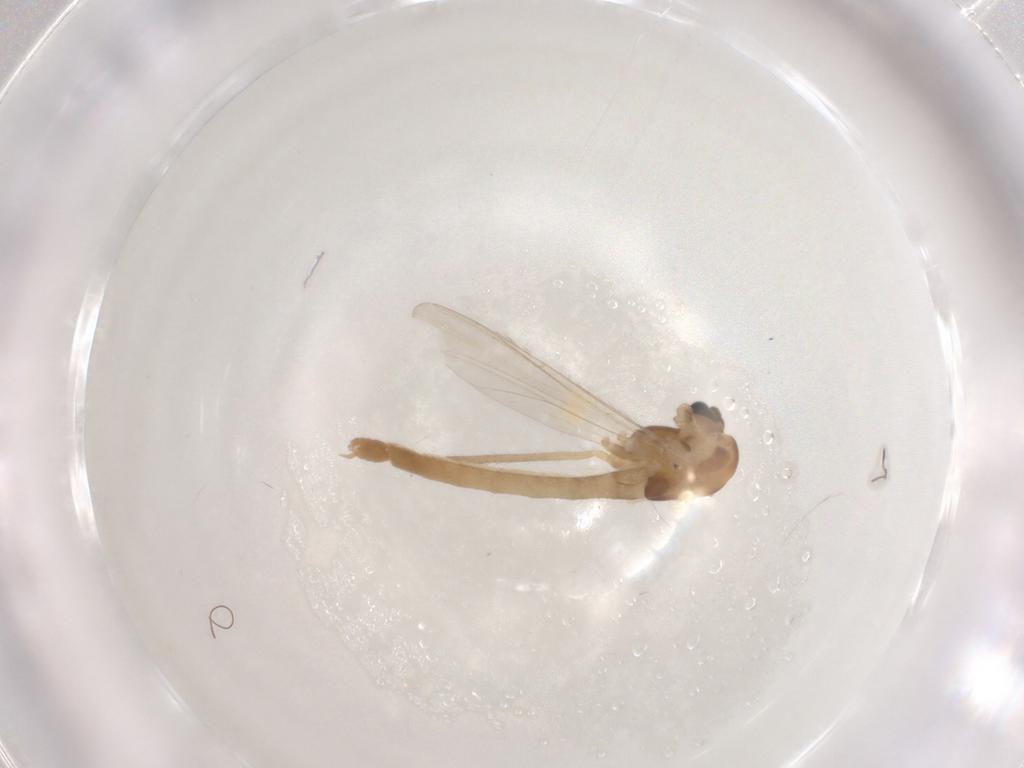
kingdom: Animalia
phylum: Arthropoda
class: Insecta
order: Diptera
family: Chironomidae
